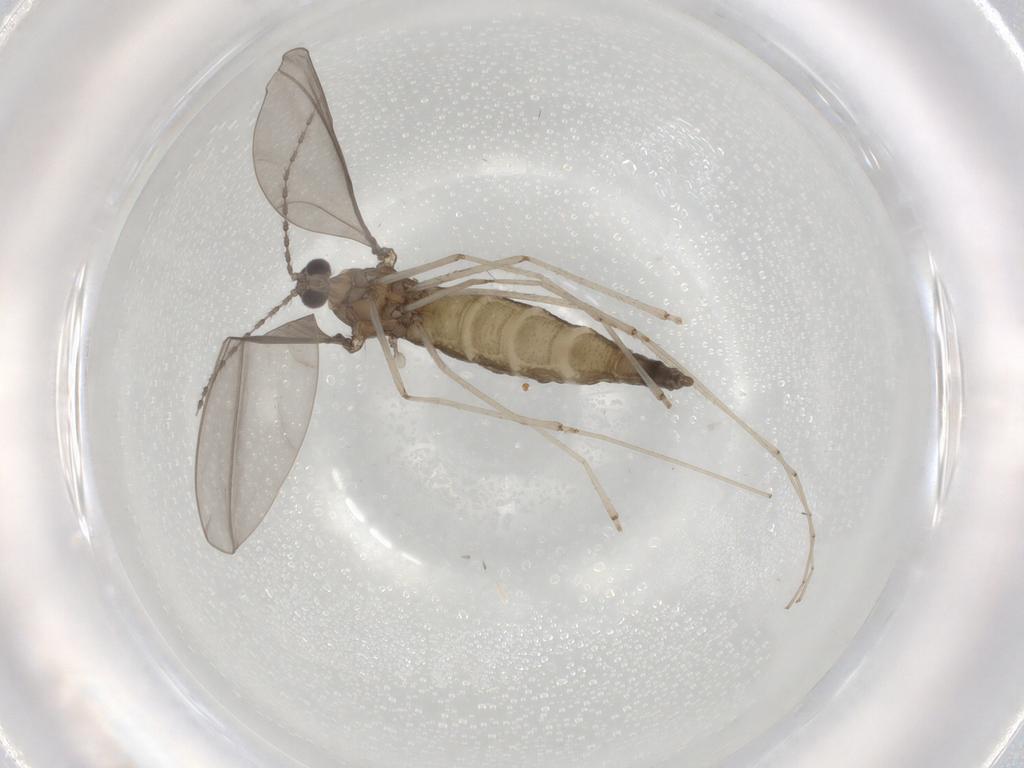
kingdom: Animalia
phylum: Arthropoda
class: Insecta
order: Diptera
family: Cecidomyiidae
